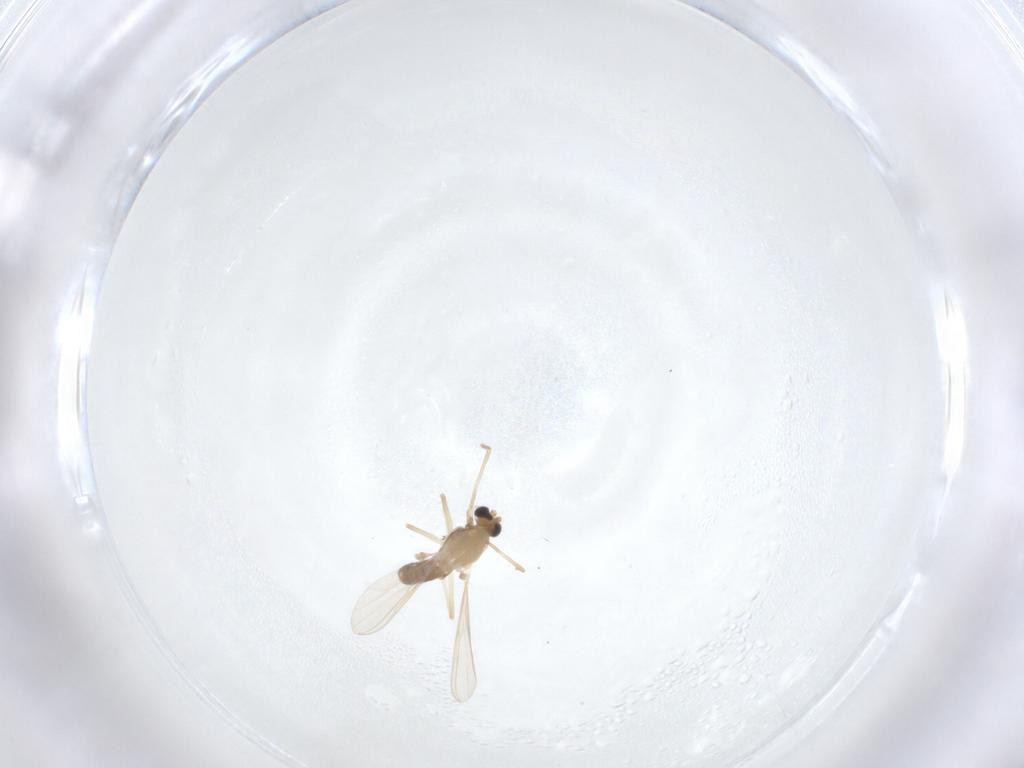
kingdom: Animalia
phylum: Arthropoda
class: Insecta
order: Diptera
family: Chironomidae
